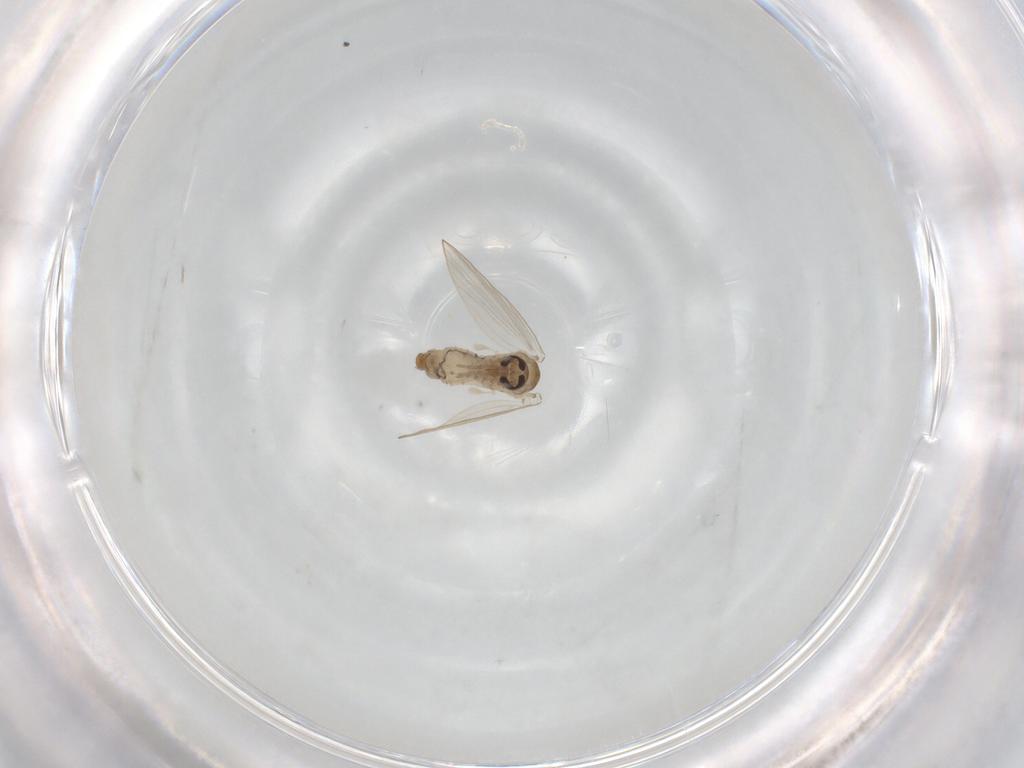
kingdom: Animalia
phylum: Arthropoda
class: Insecta
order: Diptera
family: Psychodidae
